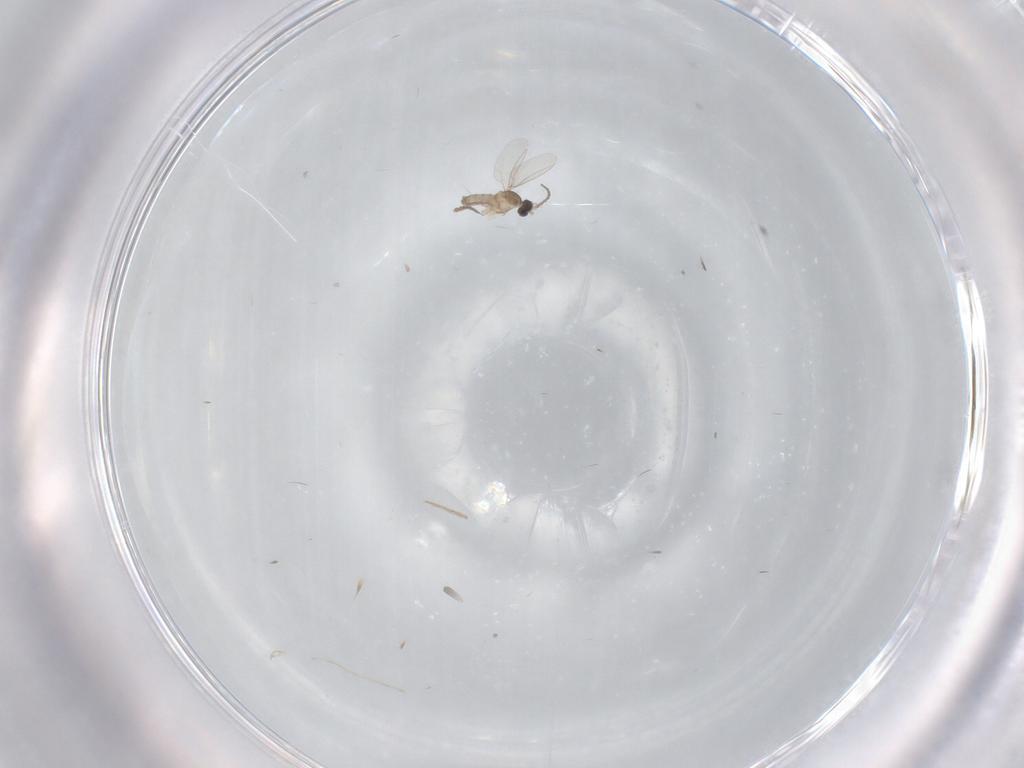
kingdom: Animalia
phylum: Arthropoda
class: Insecta
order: Diptera
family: Cecidomyiidae
